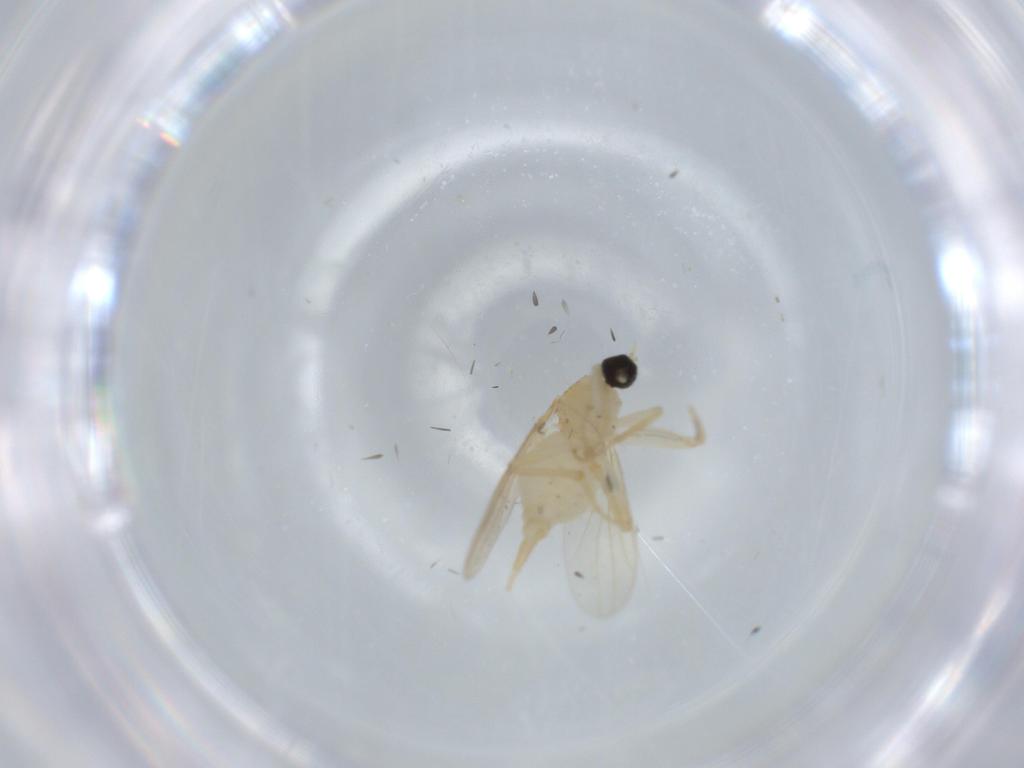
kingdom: Animalia
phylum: Arthropoda
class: Insecta
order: Diptera
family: Cecidomyiidae
